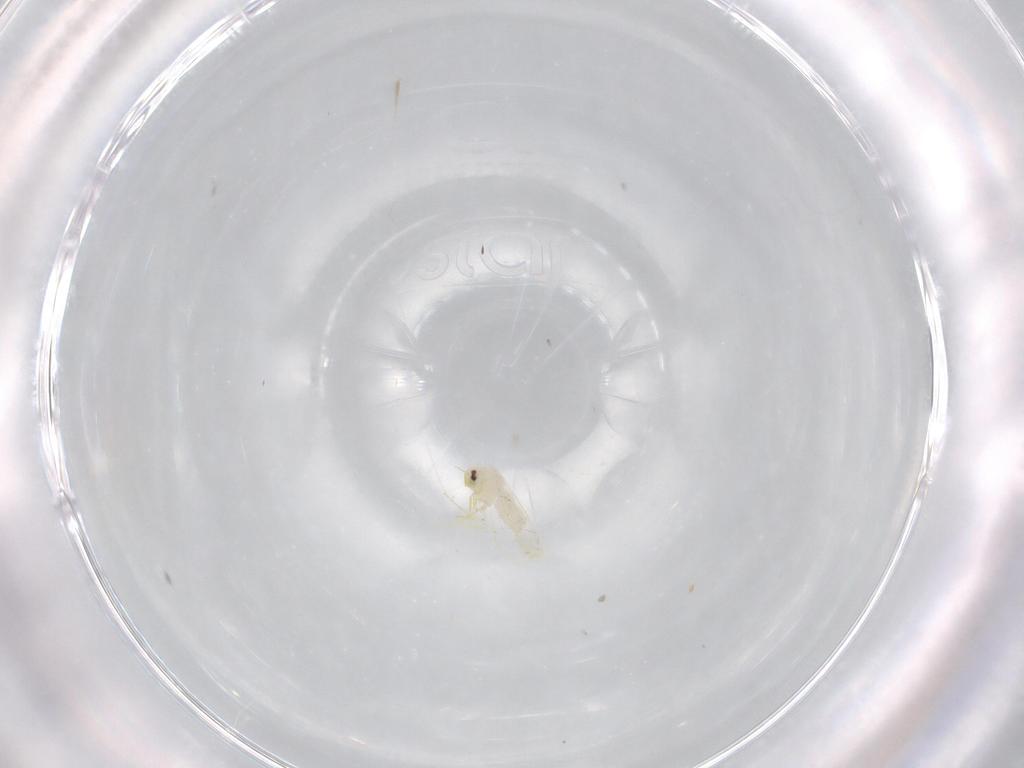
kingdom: Animalia
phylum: Arthropoda
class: Insecta
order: Hemiptera
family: Aleyrodidae
